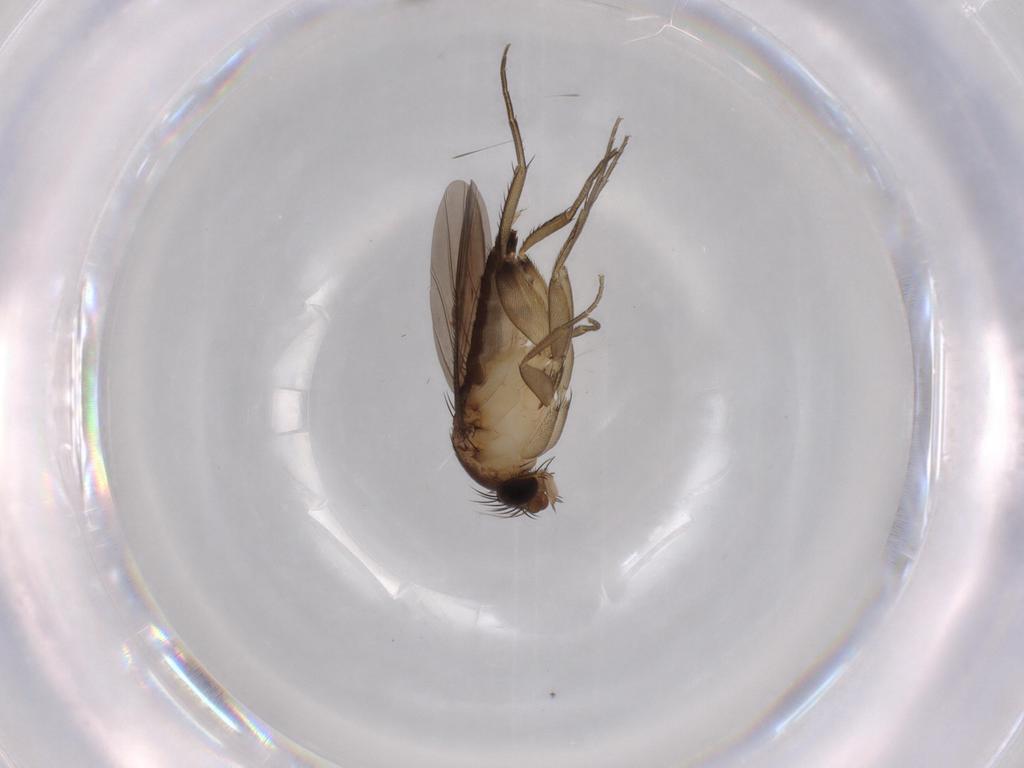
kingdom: Animalia
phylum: Arthropoda
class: Insecta
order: Diptera
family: Phoridae
